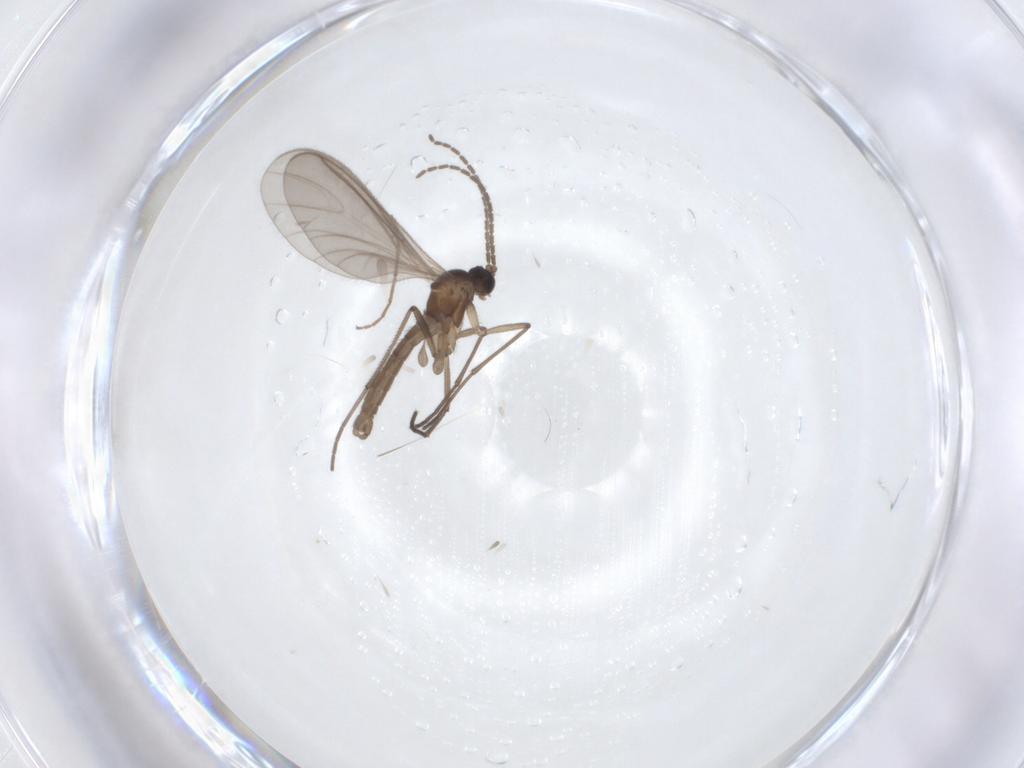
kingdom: Animalia
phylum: Arthropoda
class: Insecta
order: Diptera
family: Sciaridae
